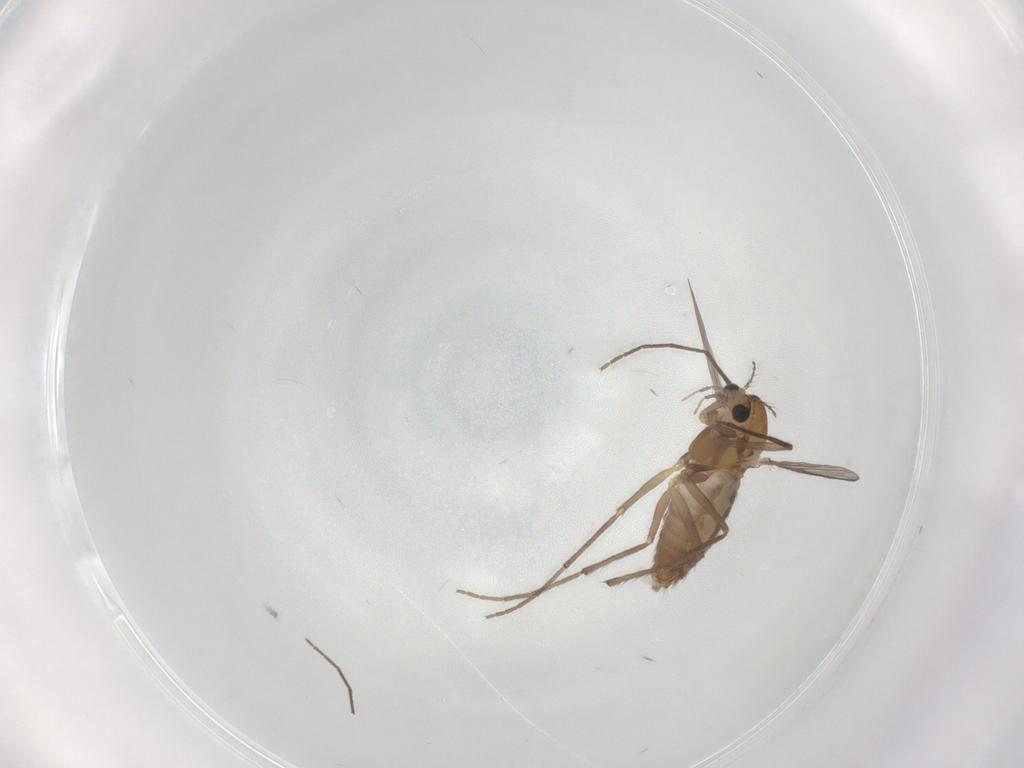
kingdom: Animalia
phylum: Arthropoda
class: Insecta
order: Diptera
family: Chironomidae
